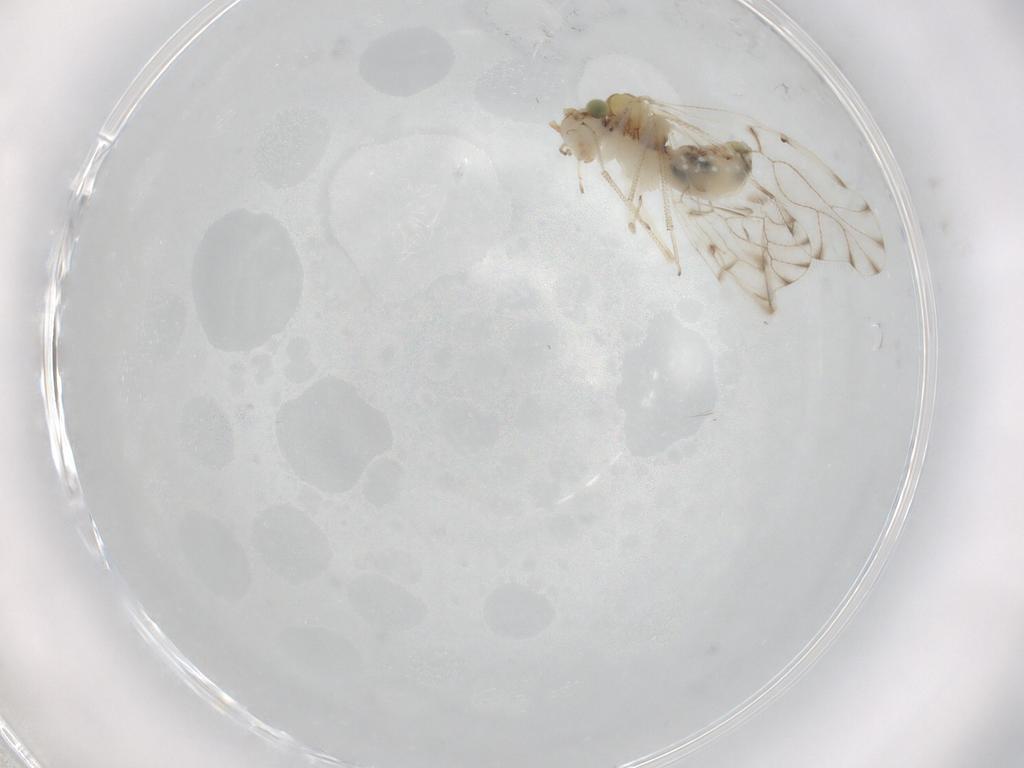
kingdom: Animalia
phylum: Arthropoda
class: Insecta
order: Psocodea
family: Ectopsocidae
